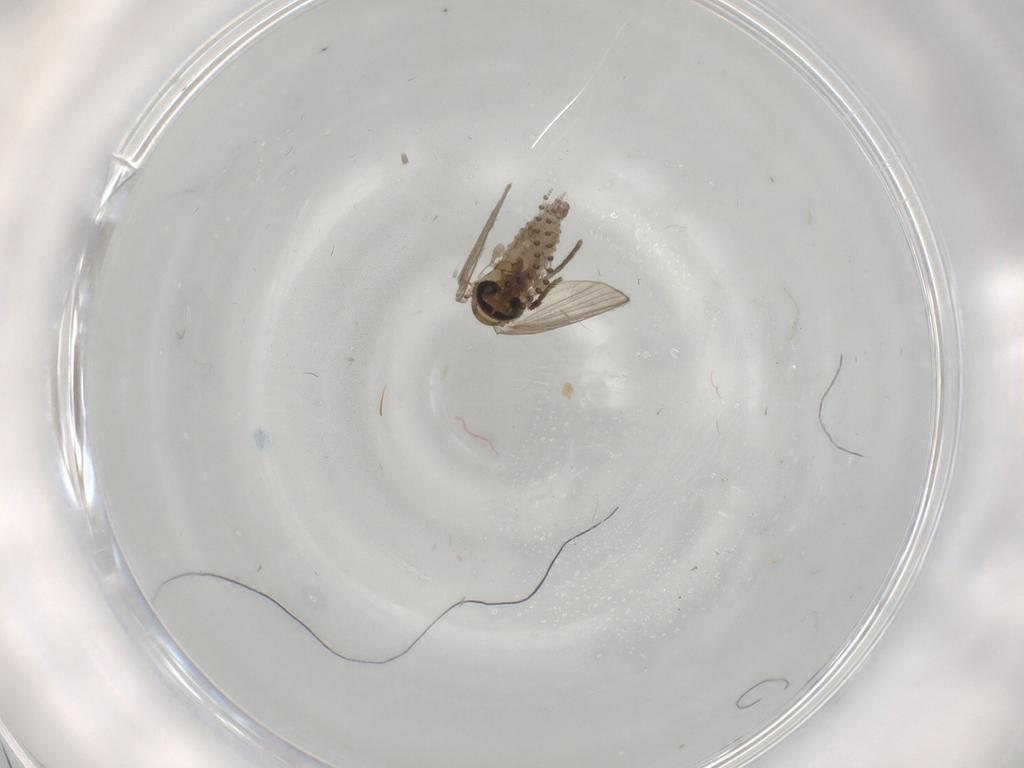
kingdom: Animalia
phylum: Arthropoda
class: Insecta
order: Diptera
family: Psychodidae
